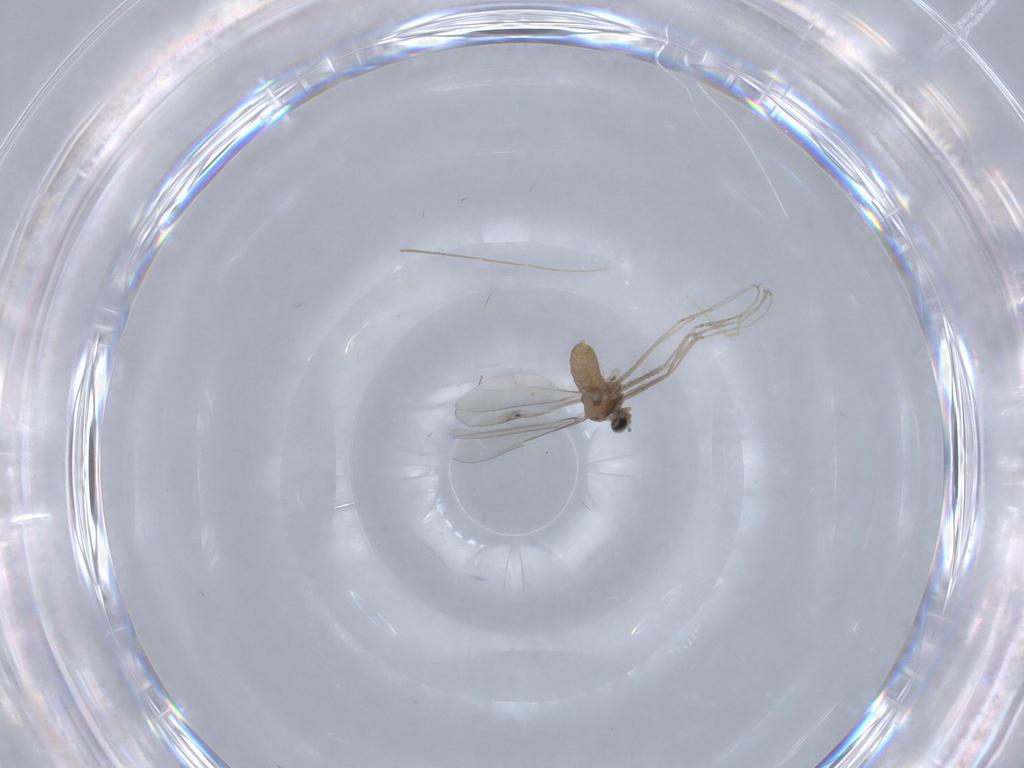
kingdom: Animalia
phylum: Arthropoda
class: Insecta
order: Diptera
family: Cecidomyiidae
